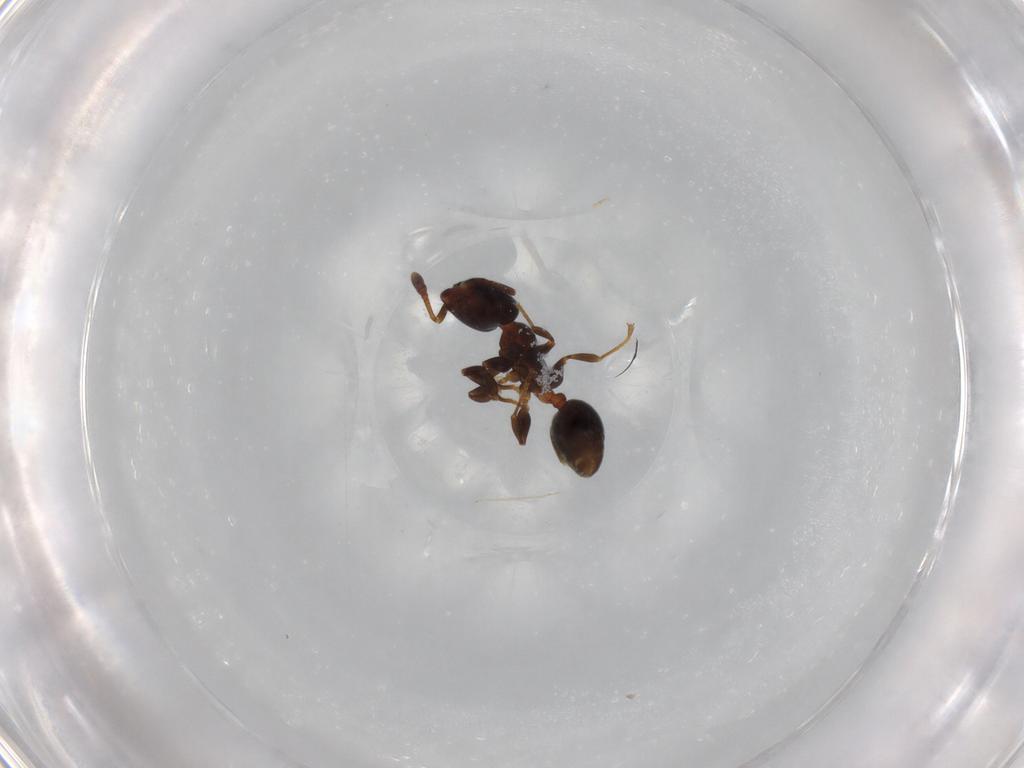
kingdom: Animalia
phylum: Arthropoda
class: Insecta
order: Hymenoptera
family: Formicidae
